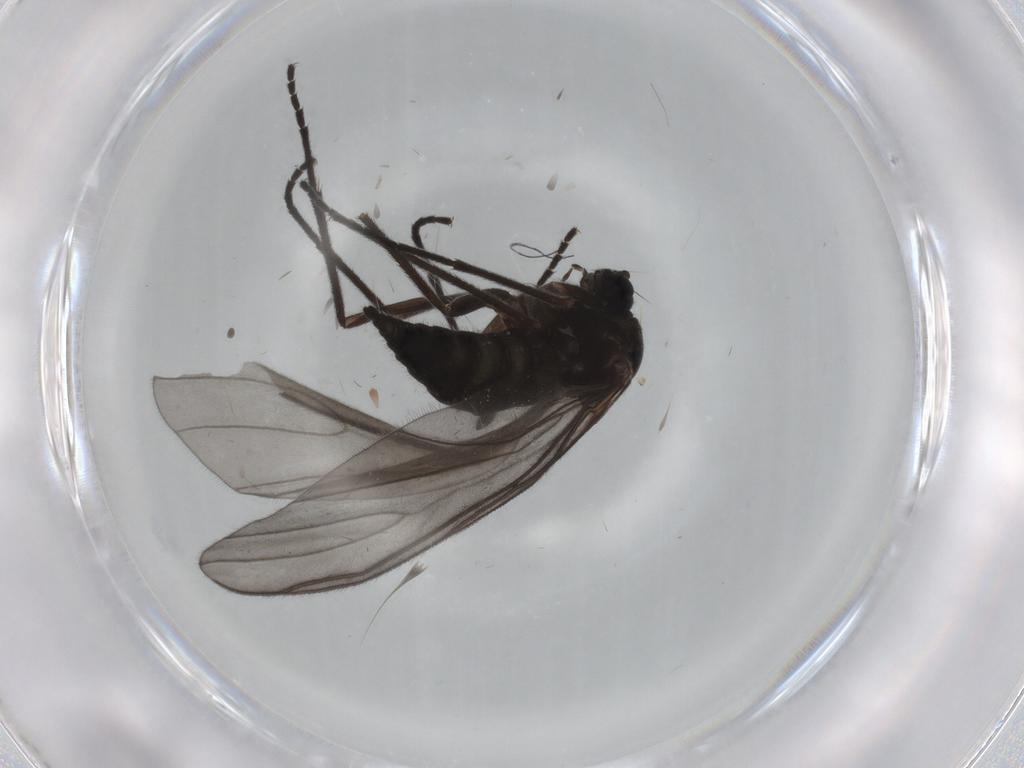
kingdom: Animalia
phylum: Arthropoda
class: Insecta
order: Diptera
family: Sciaridae
